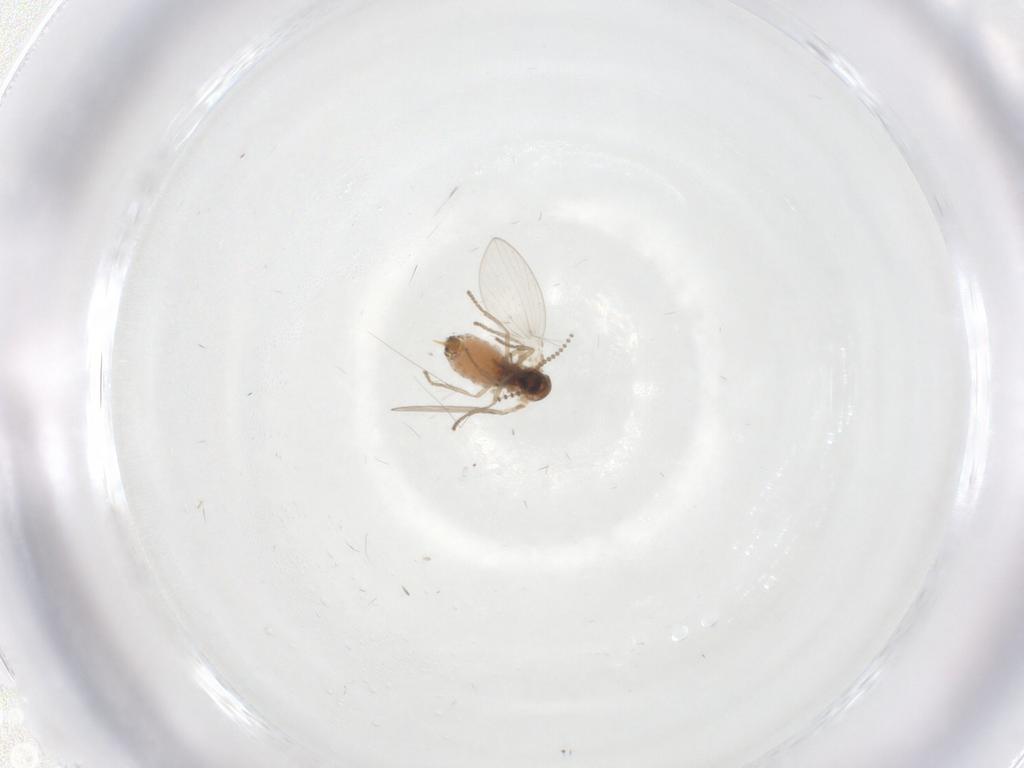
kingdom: Animalia
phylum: Arthropoda
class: Insecta
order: Diptera
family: Psychodidae
